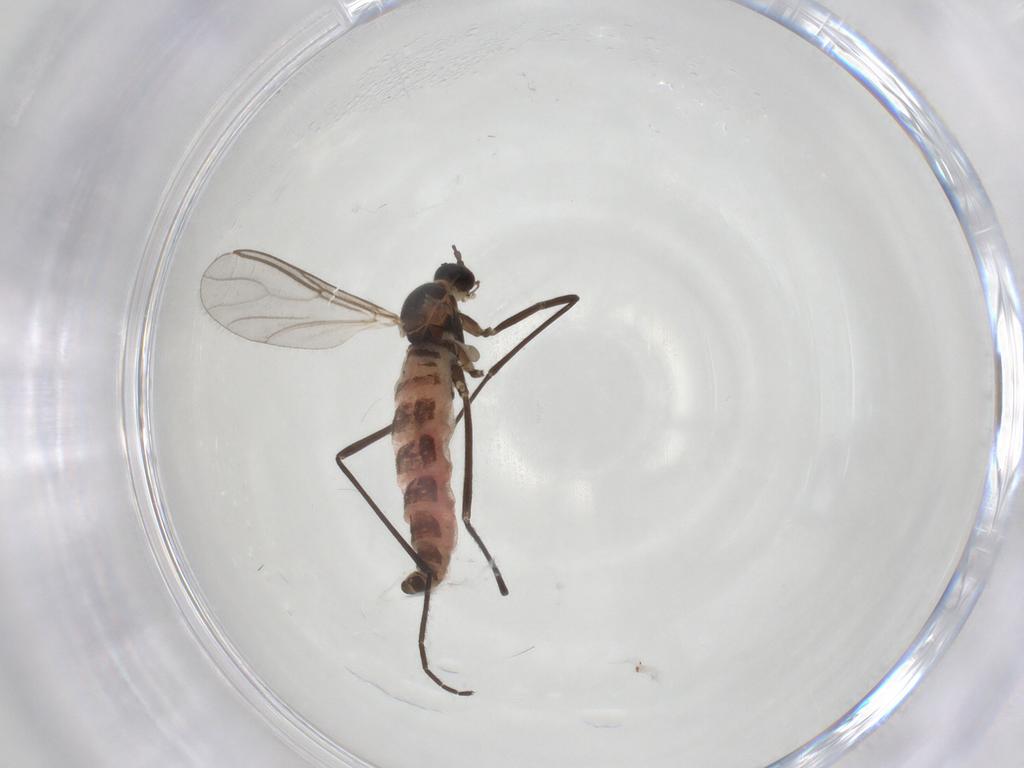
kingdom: Animalia
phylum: Arthropoda
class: Insecta
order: Diptera
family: Cecidomyiidae
